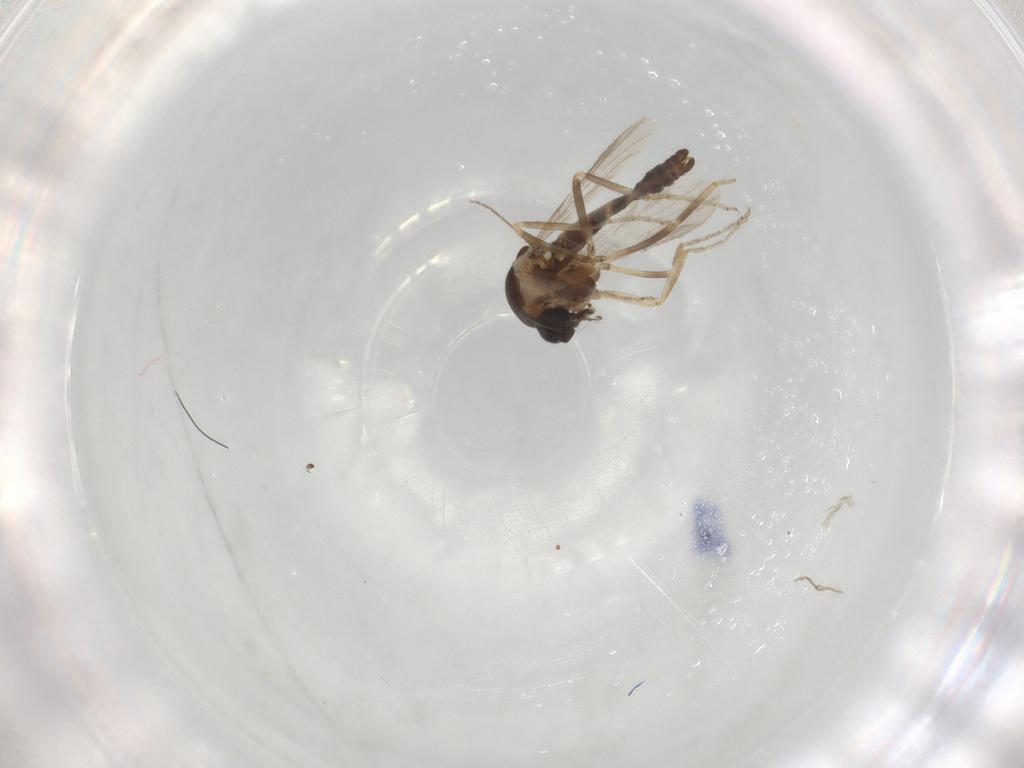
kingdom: Animalia
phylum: Arthropoda
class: Insecta
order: Diptera
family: Ceratopogonidae
